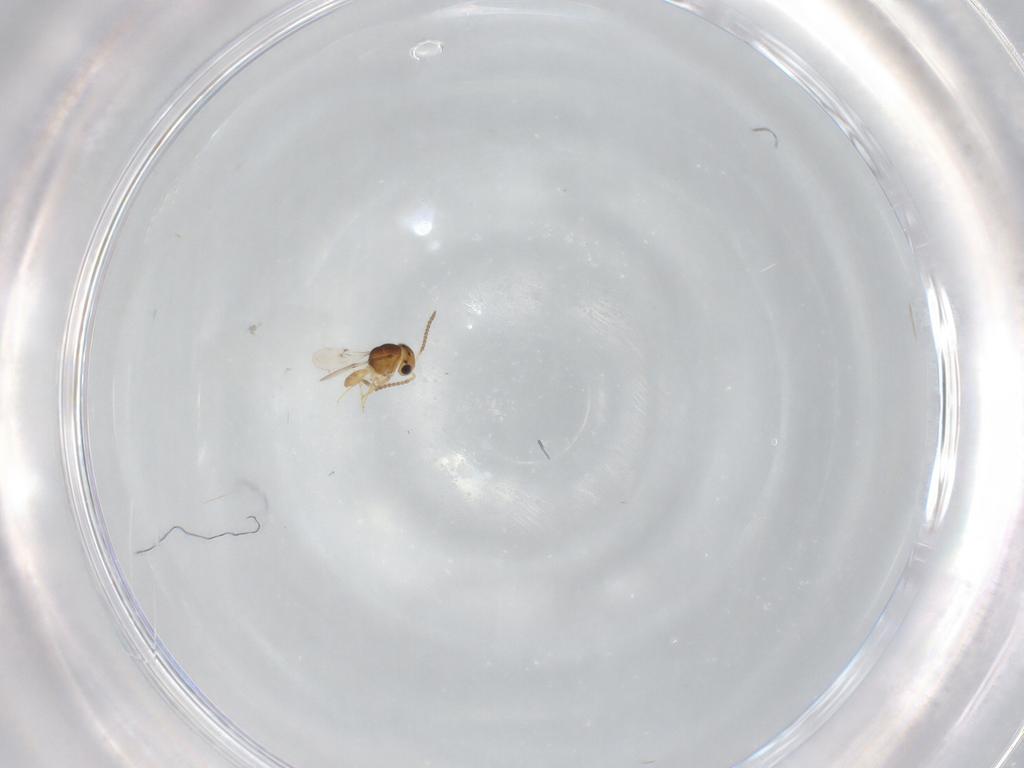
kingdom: Animalia
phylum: Arthropoda
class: Insecta
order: Hymenoptera
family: Scelionidae
